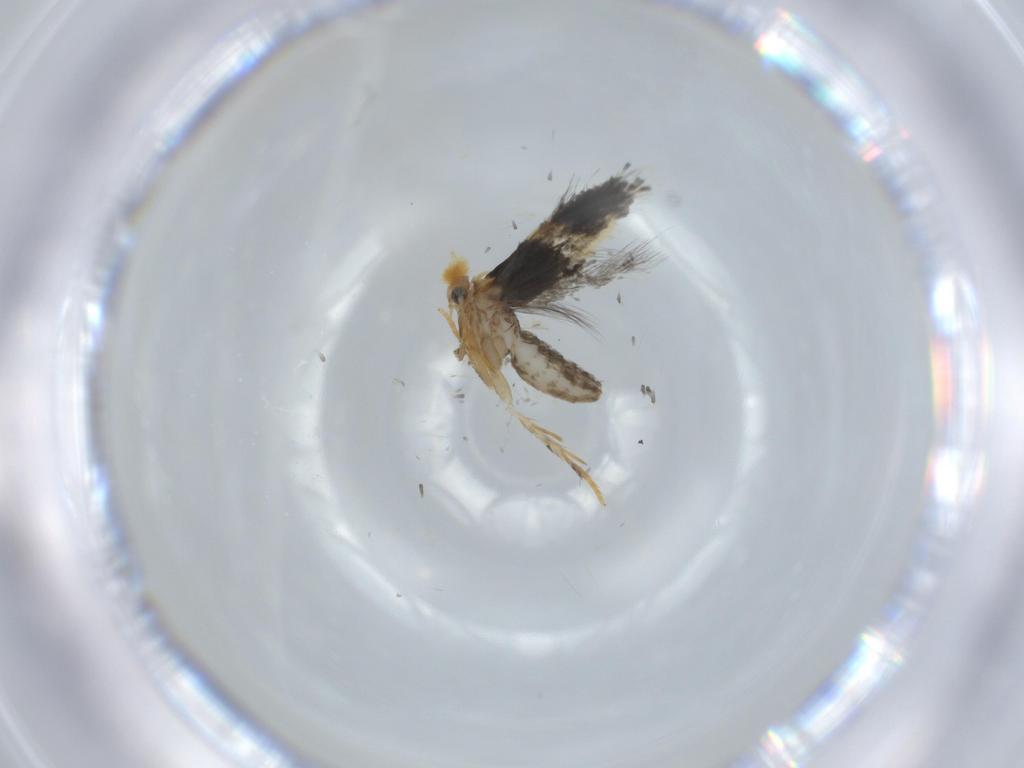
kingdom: Animalia
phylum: Arthropoda
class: Insecta
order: Lepidoptera
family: Nepticulidae
